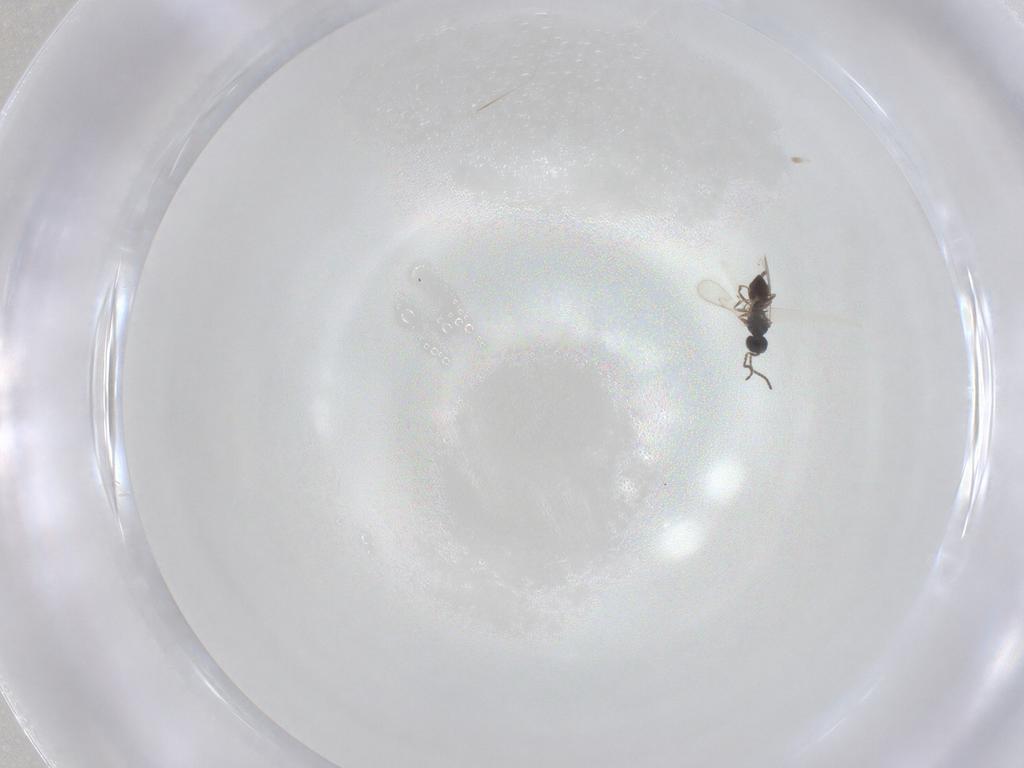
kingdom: Animalia
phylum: Arthropoda
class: Insecta
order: Hymenoptera
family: Scelionidae
